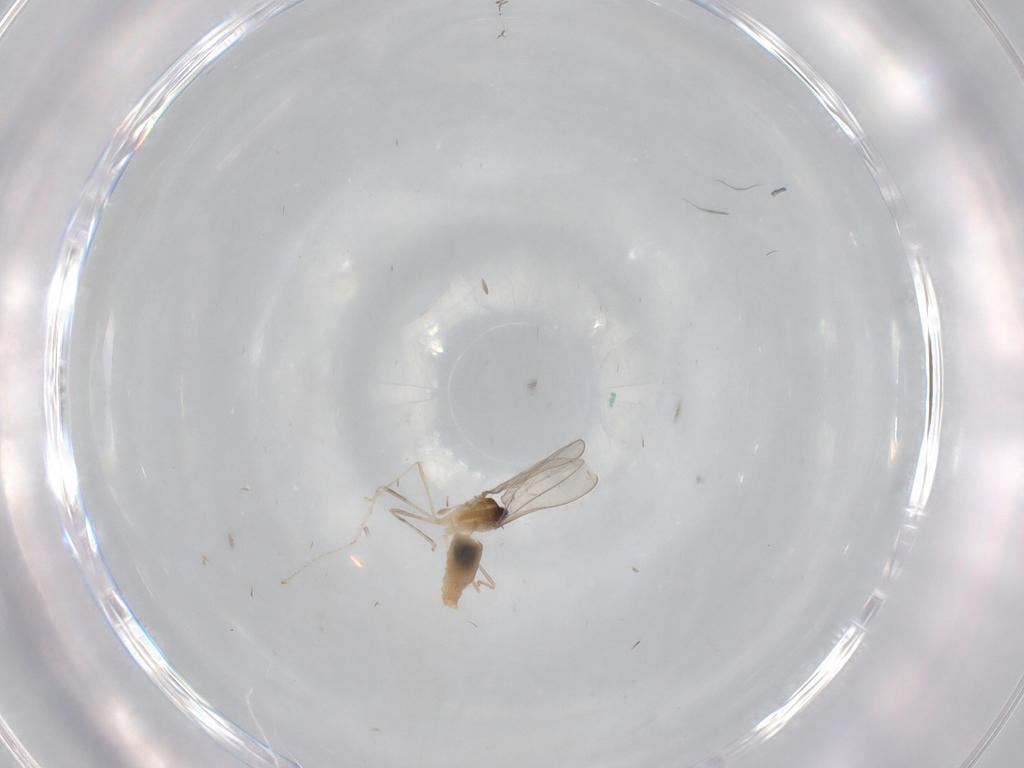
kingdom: Animalia
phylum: Arthropoda
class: Insecta
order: Diptera
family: Cecidomyiidae
